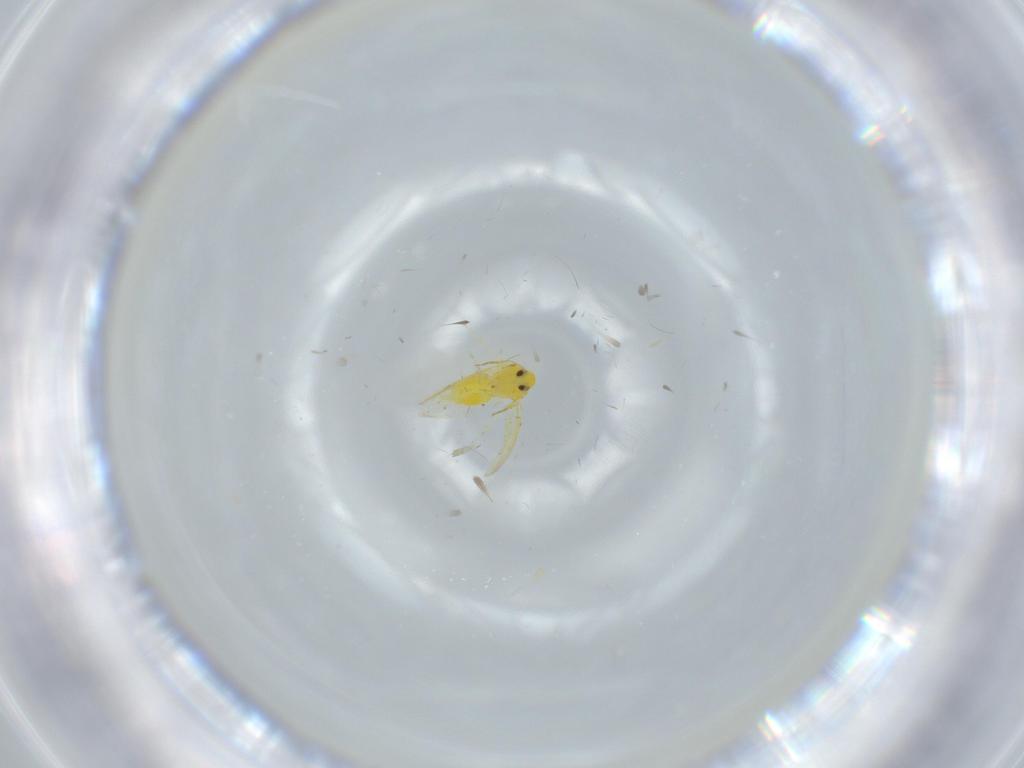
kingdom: Animalia
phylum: Arthropoda
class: Insecta
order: Hemiptera
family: Aleyrodidae
